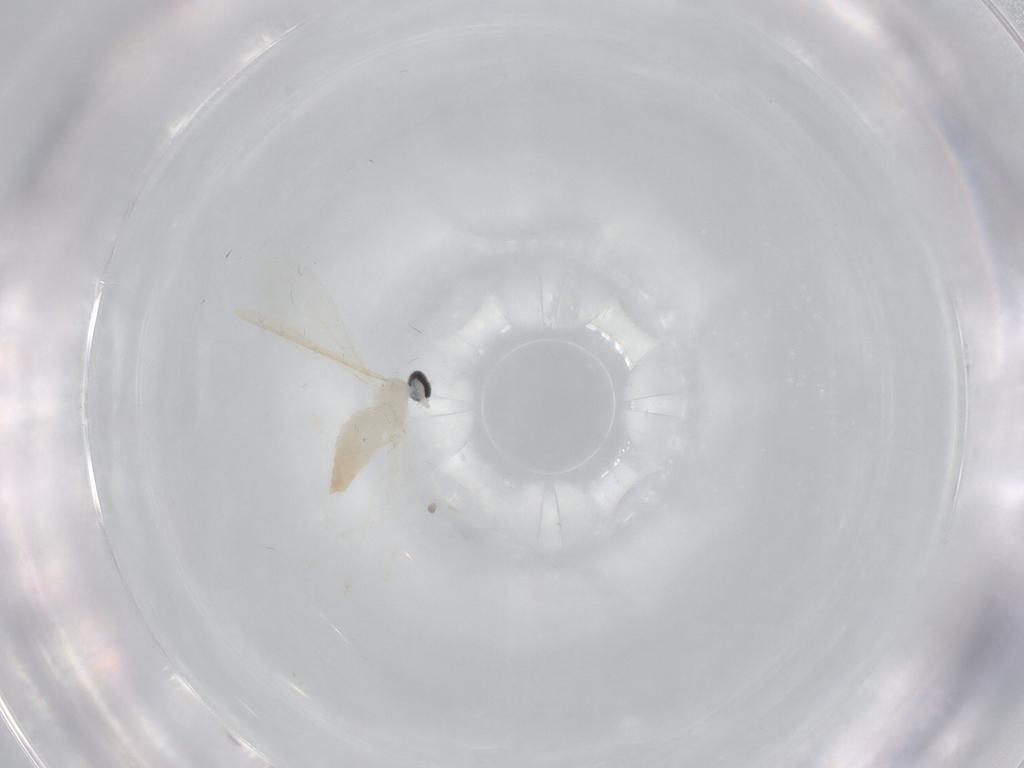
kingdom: Animalia
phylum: Arthropoda
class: Insecta
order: Diptera
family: Cecidomyiidae
